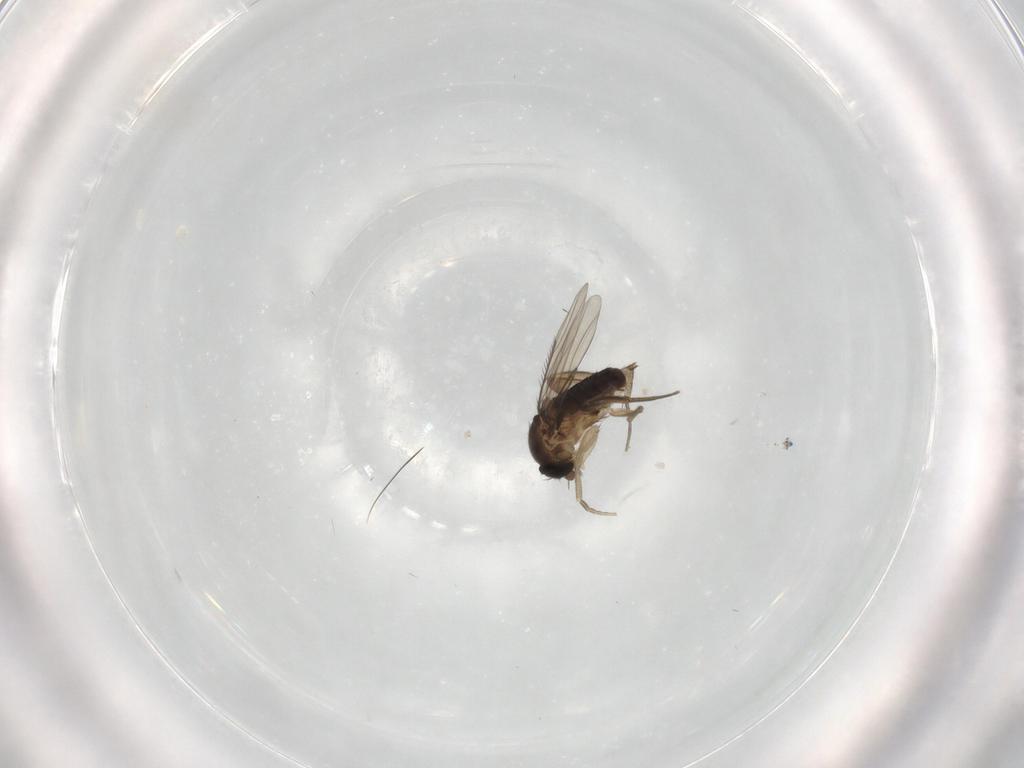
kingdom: Animalia
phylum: Arthropoda
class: Insecta
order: Diptera
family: Phoridae
